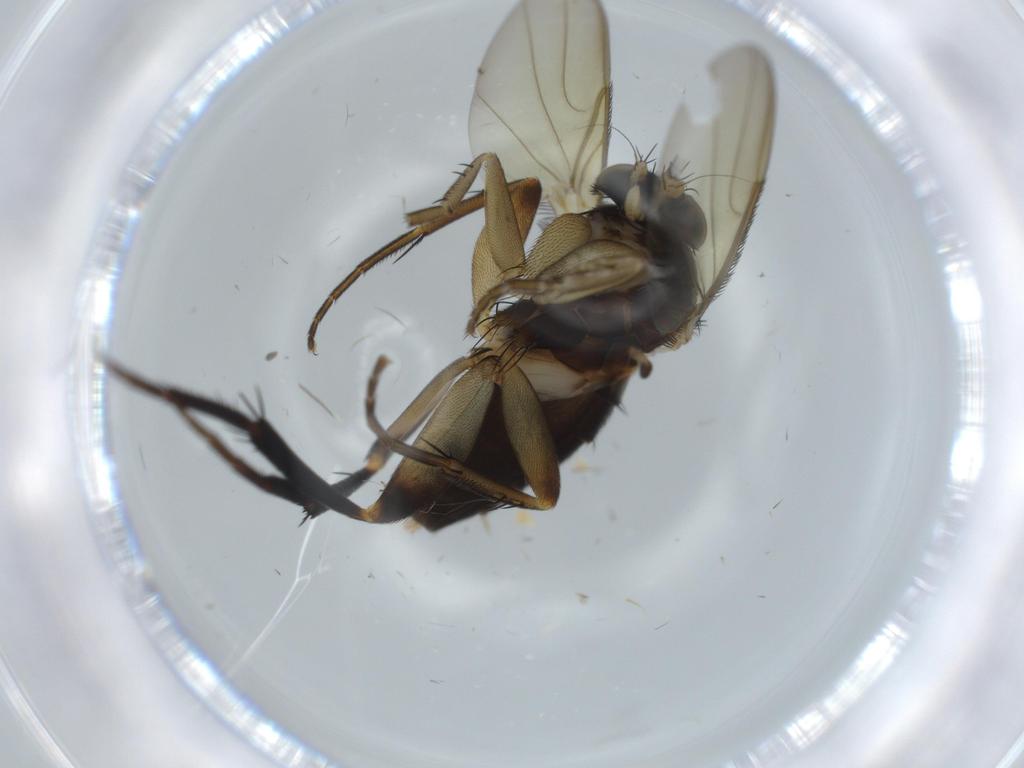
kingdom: Animalia
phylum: Arthropoda
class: Insecta
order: Diptera
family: Phoridae
